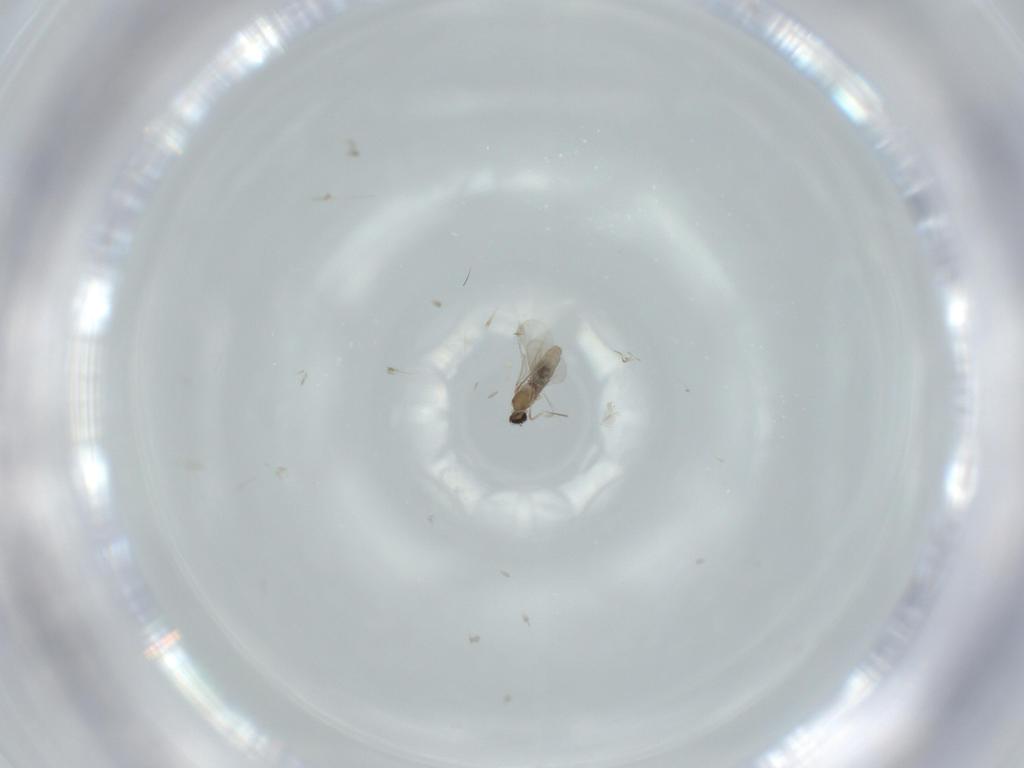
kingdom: Animalia
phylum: Arthropoda
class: Insecta
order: Diptera
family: Cecidomyiidae
